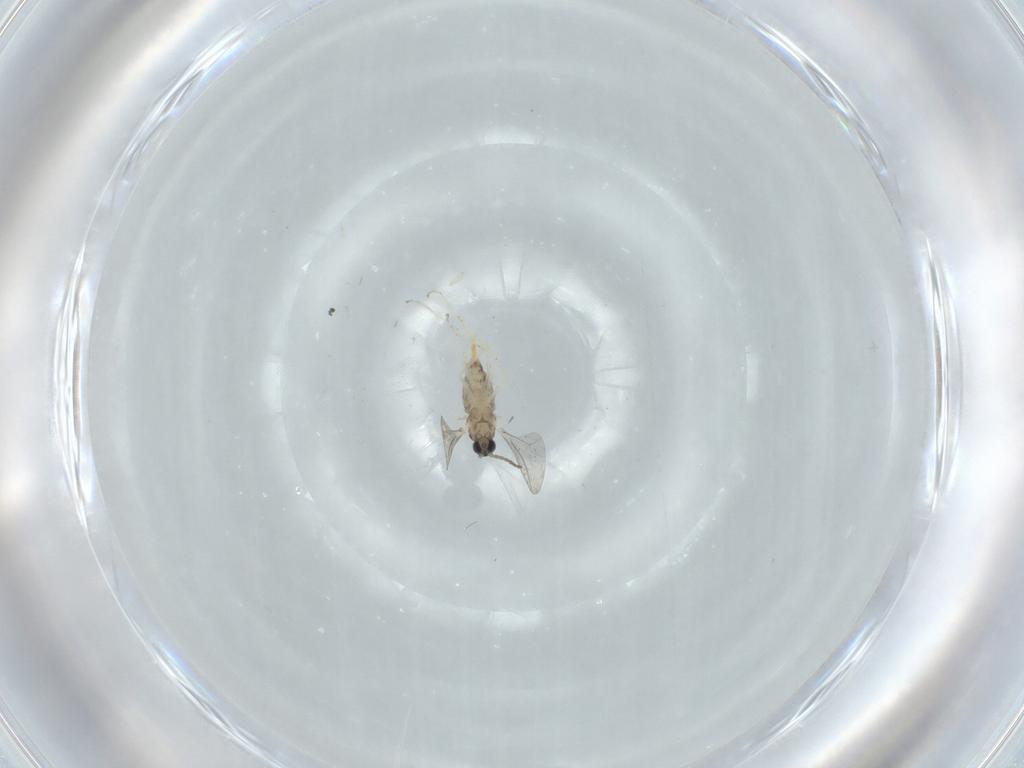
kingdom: Animalia
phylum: Arthropoda
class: Insecta
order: Diptera
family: Cecidomyiidae
